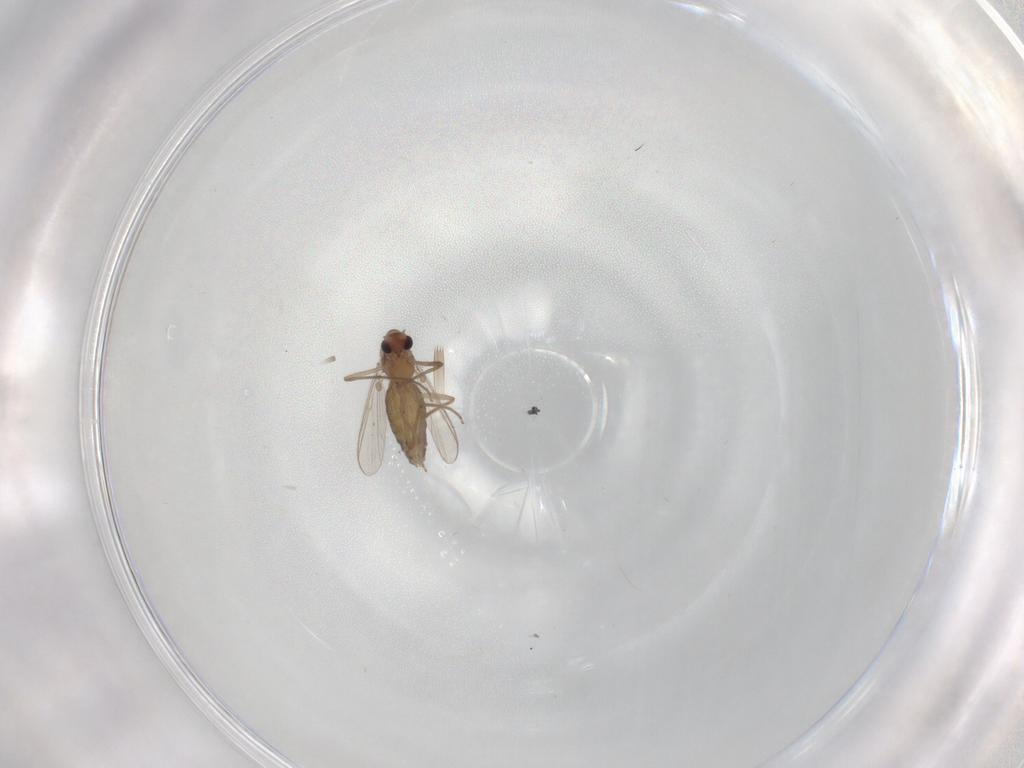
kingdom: Animalia
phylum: Arthropoda
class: Insecta
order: Diptera
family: Chironomidae
